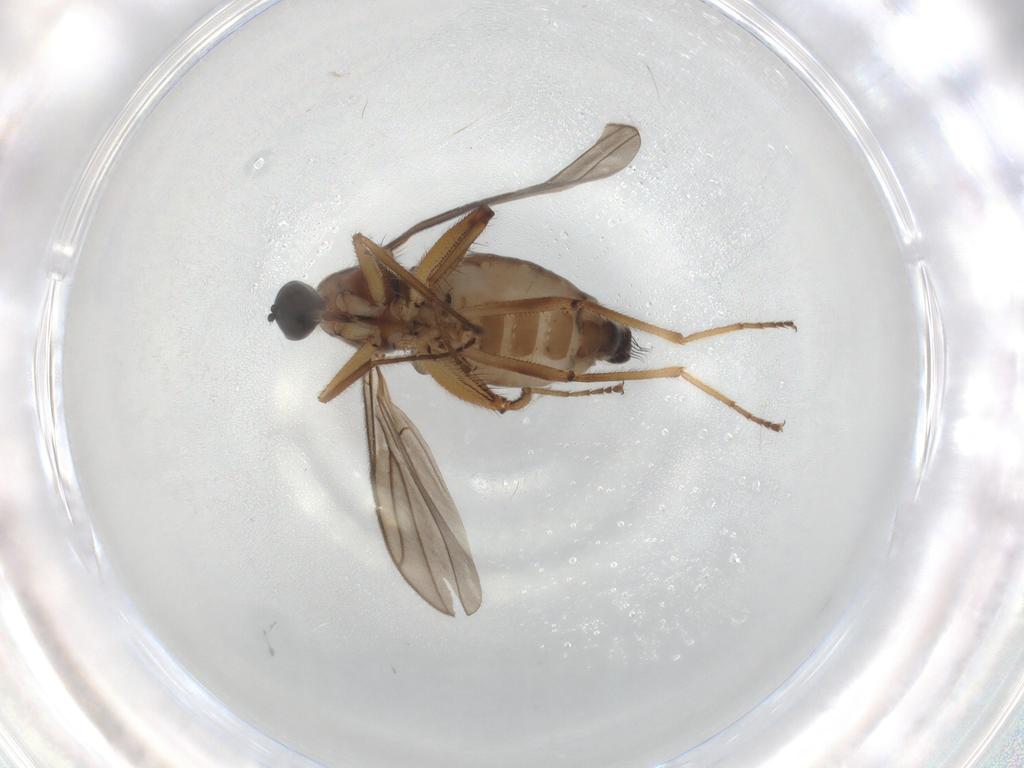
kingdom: Animalia
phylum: Arthropoda
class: Insecta
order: Diptera
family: Hybotidae
